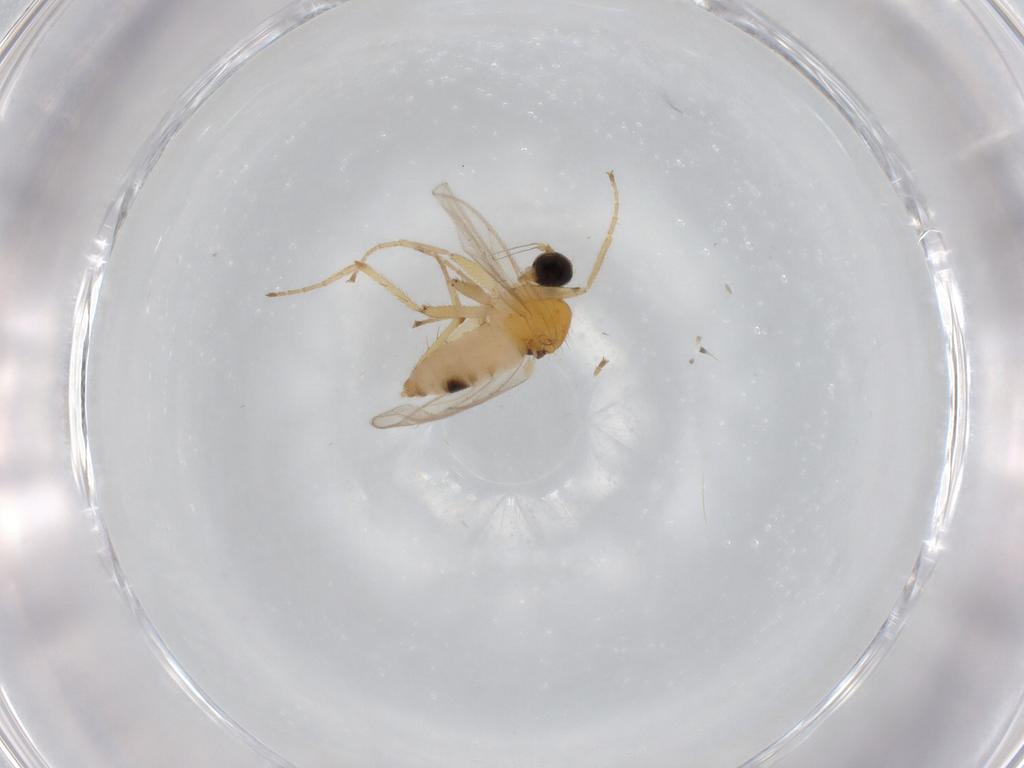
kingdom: Animalia
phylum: Arthropoda
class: Insecta
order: Diptera
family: Hybotidae
